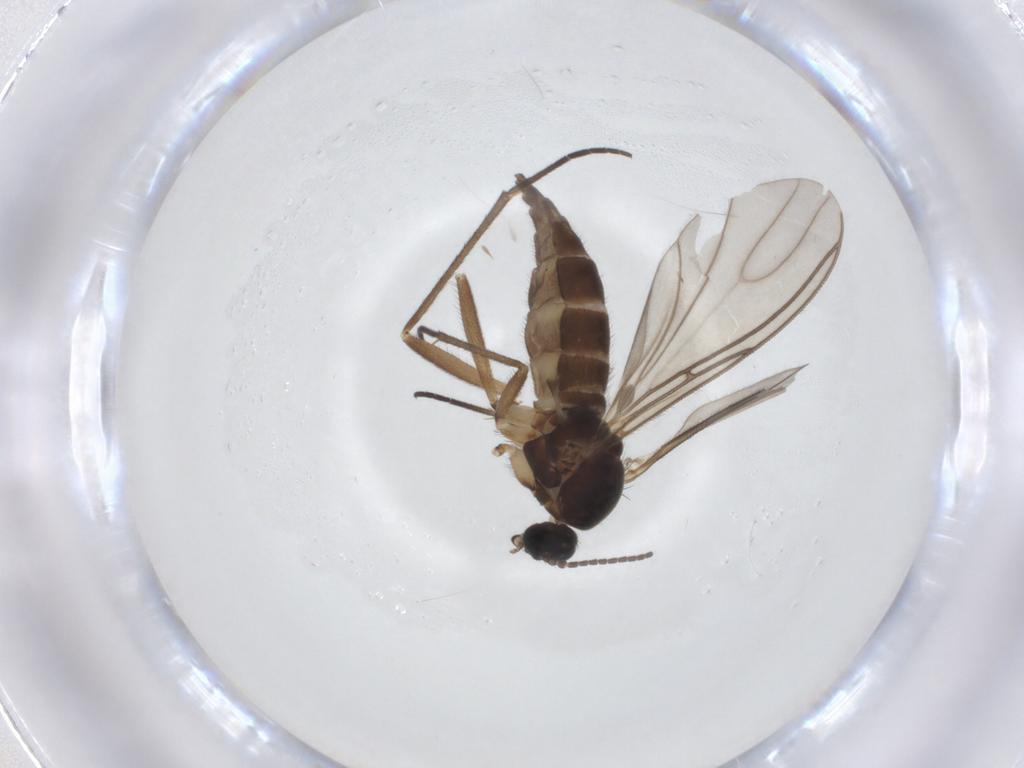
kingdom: Animalia
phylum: Arthropoda
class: Insecta
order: Diptera
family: Sciaridae
